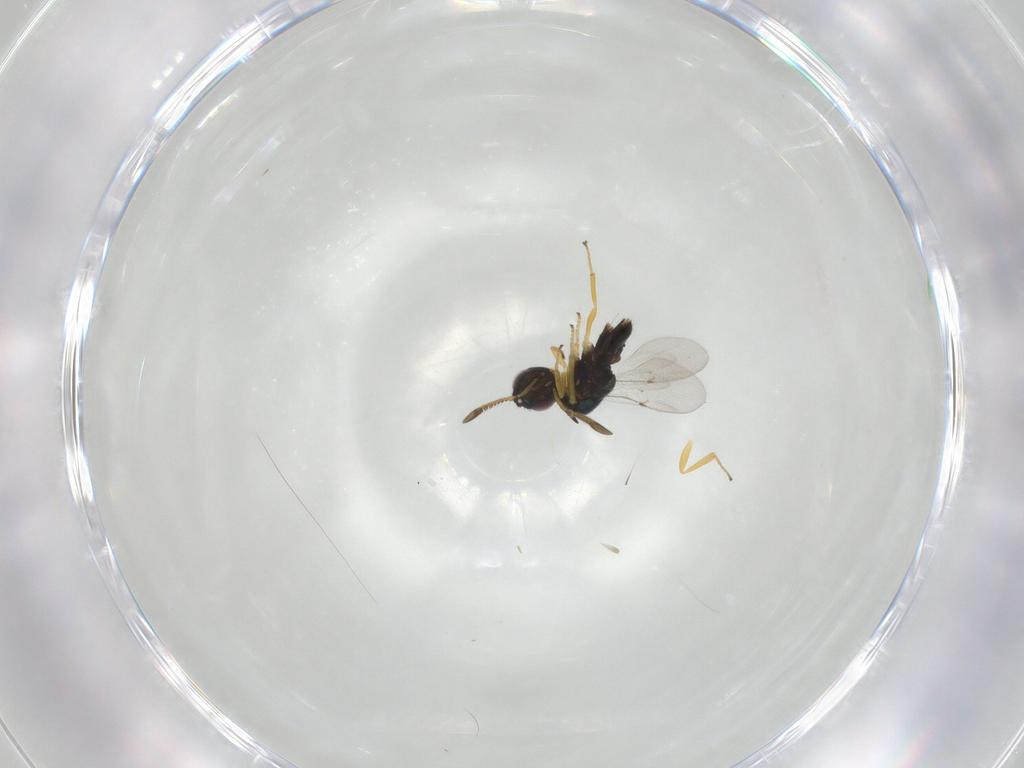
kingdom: Animalia
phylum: Arthropoda
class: Insecta
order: Hymenoptera
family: Encyrtidae
